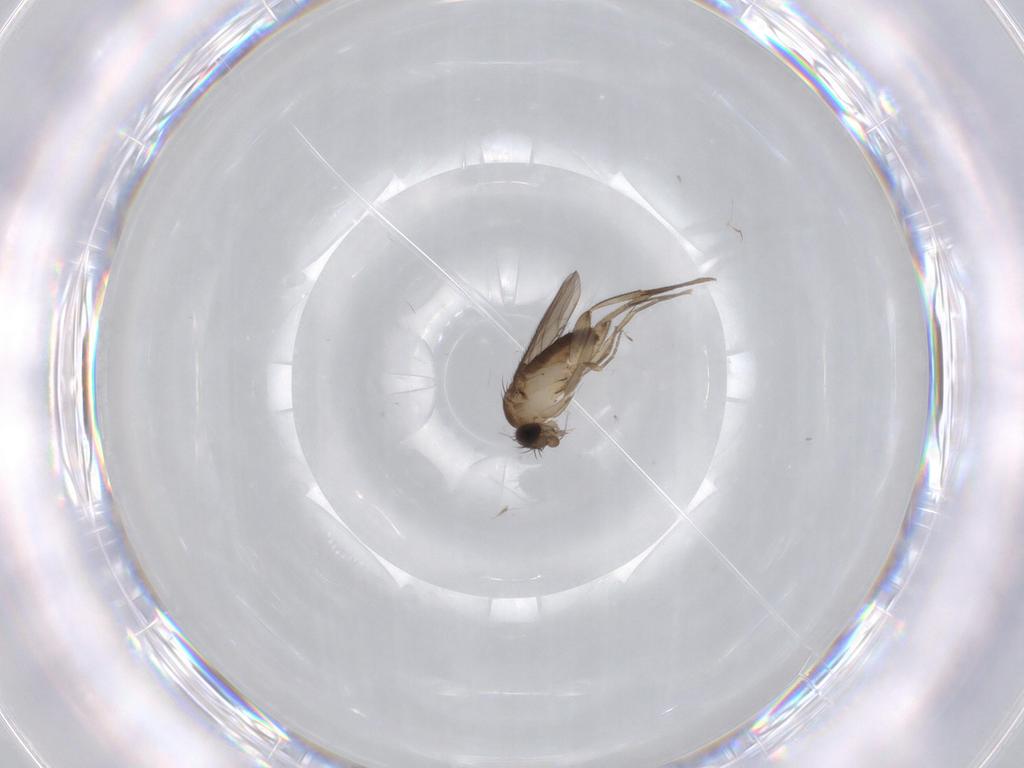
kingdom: Animalia
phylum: Arthropoda
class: Insecta
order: Diptera
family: Phoridae
